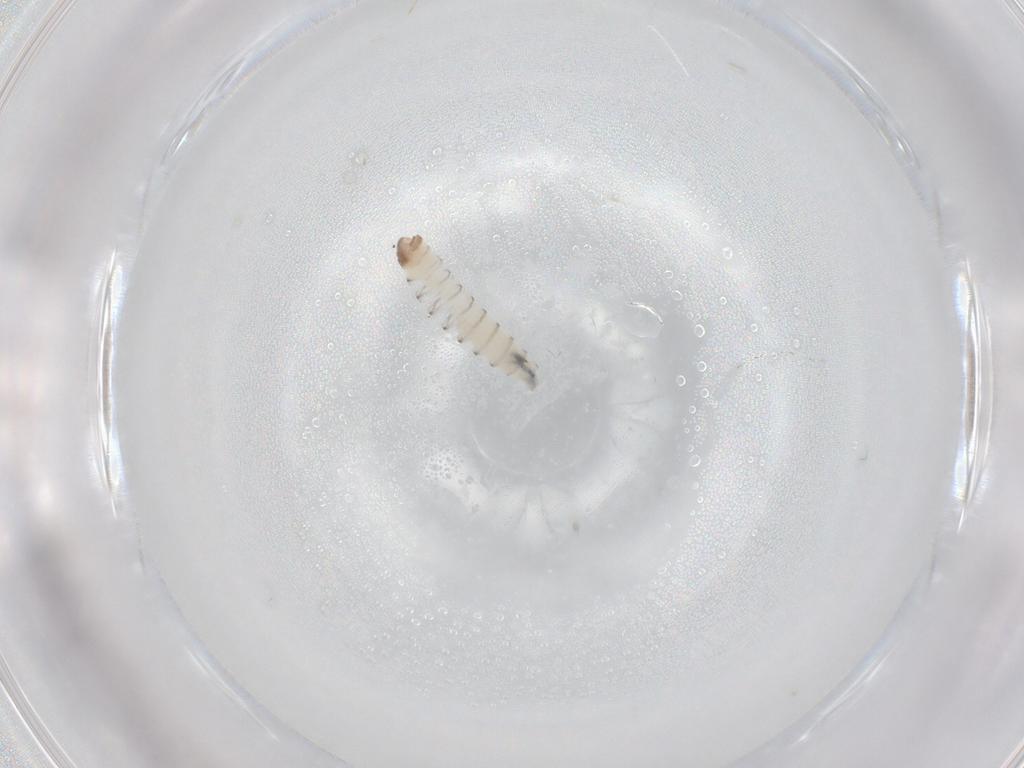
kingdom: Animalia
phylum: Arthropoda
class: Insecta
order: Diptera
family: Sarcophagidae
